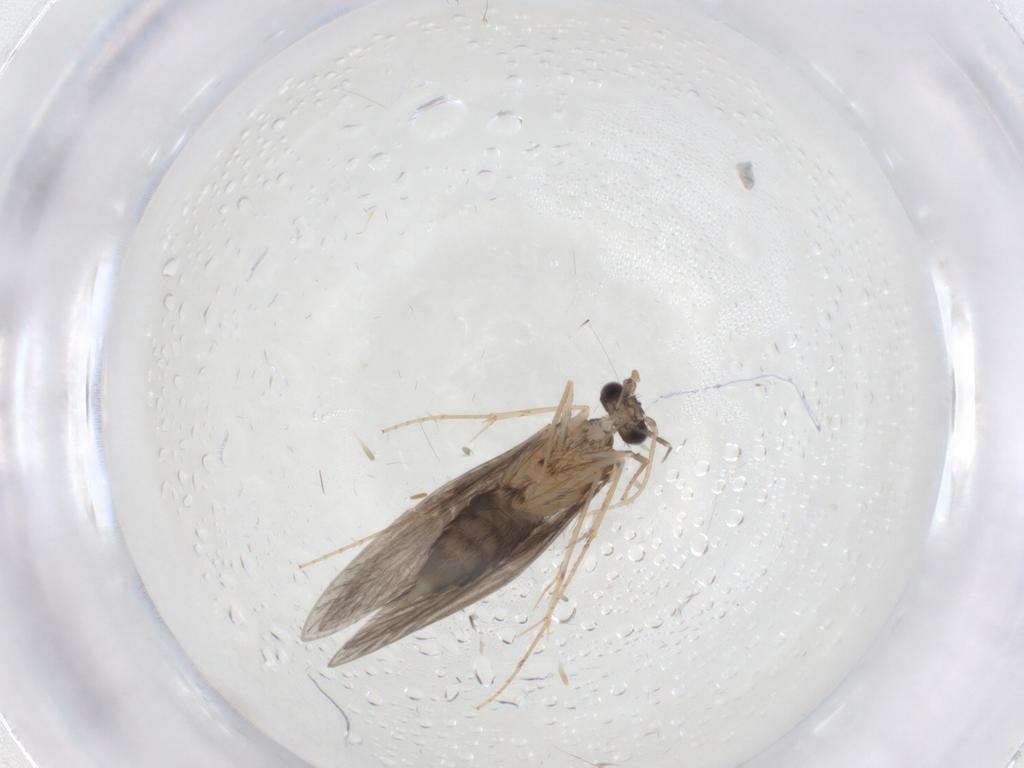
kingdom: Animalia
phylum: Arthropoda
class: Insecta
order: Trichoptera
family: Hydroptilidae
